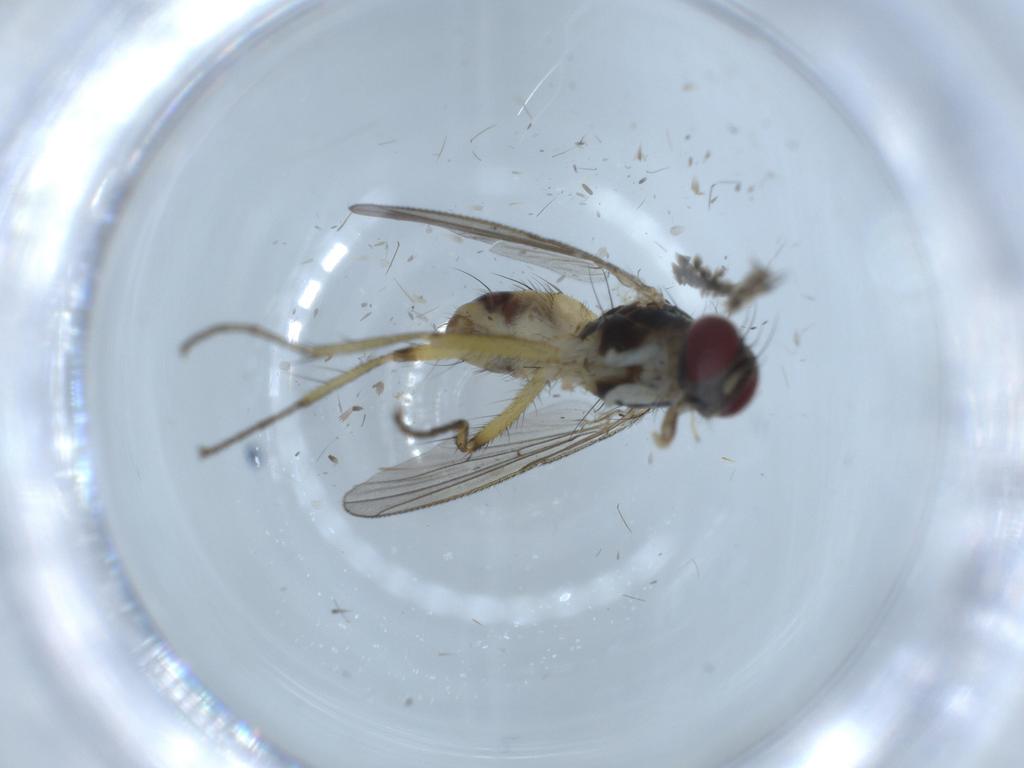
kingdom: Animalia
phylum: Arthropoda
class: Insecta
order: Diptera
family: Muscidae
